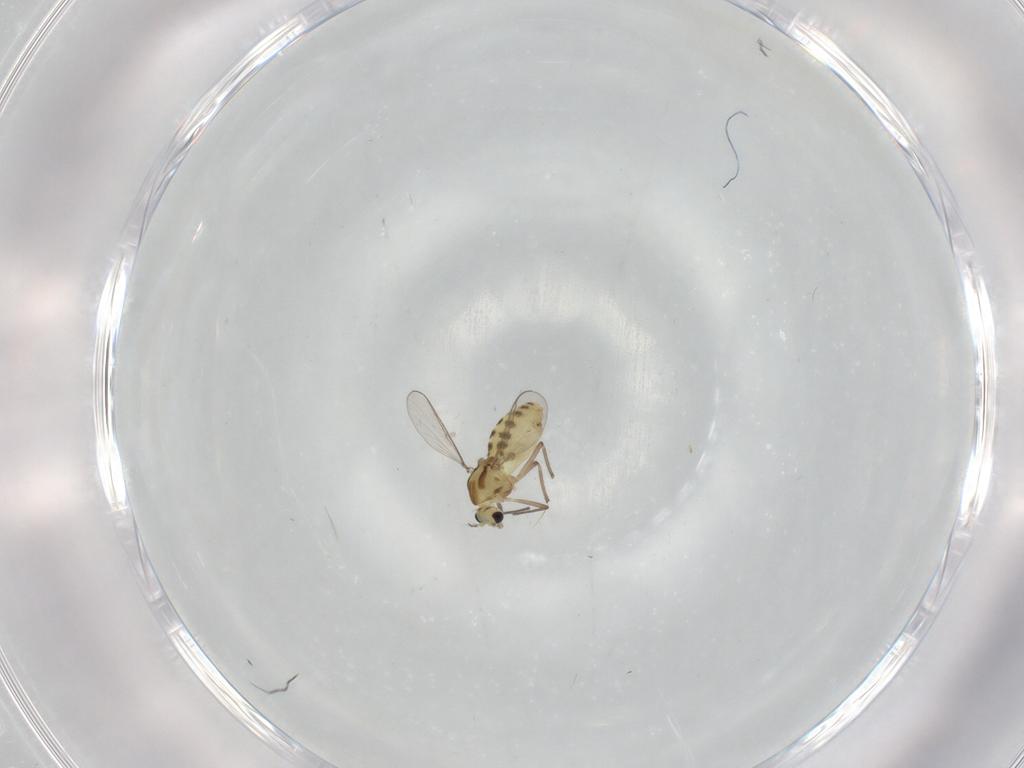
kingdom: Animalia
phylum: Arthropoda
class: Insecta
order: Diptera
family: Chironomidae
